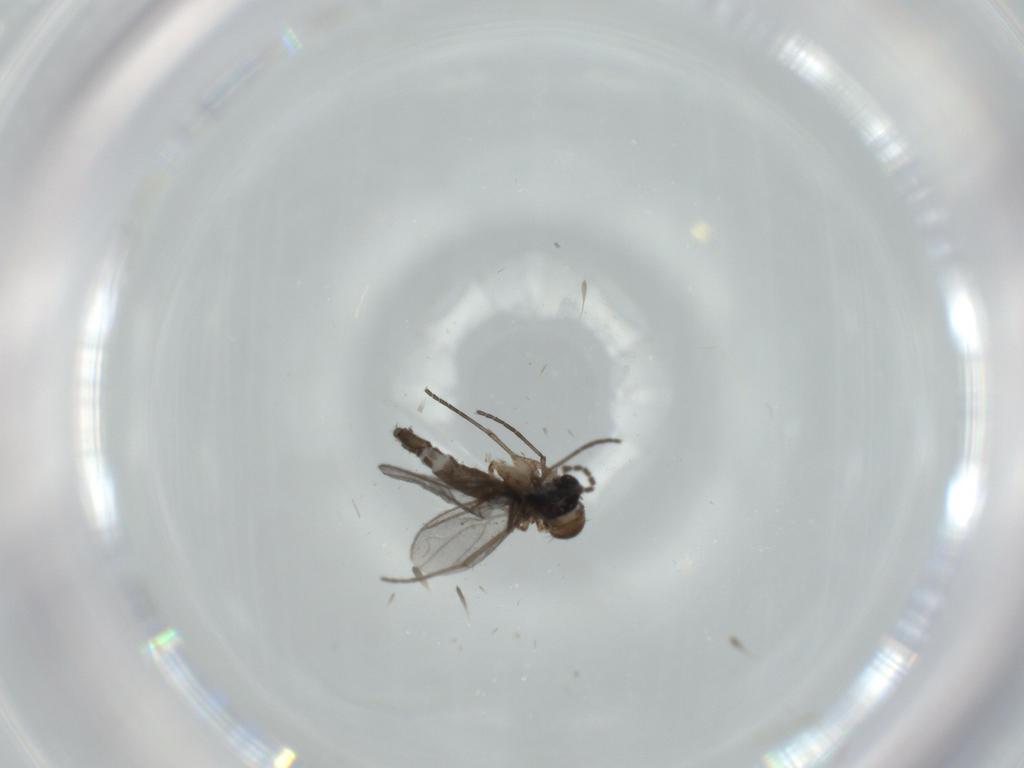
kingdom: Animalia
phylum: Arthropoda
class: Insecta
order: Diptera
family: Sciaridae
